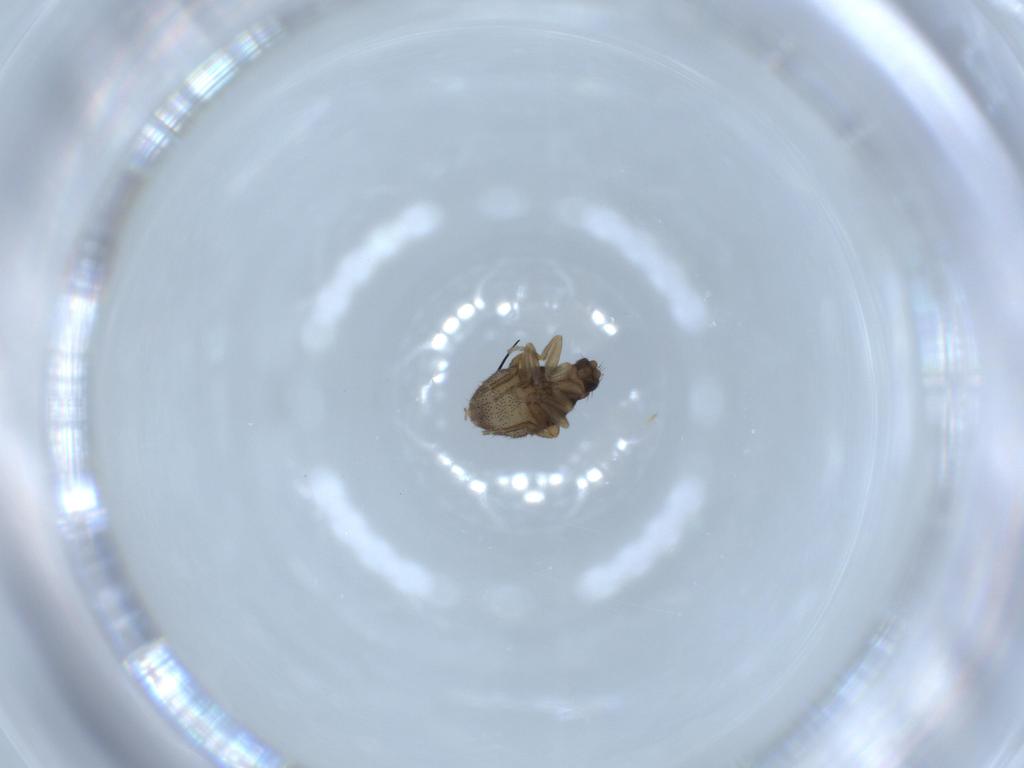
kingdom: Animalia
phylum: Arthropoda
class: Insecta
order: Diptera
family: Phoridae
